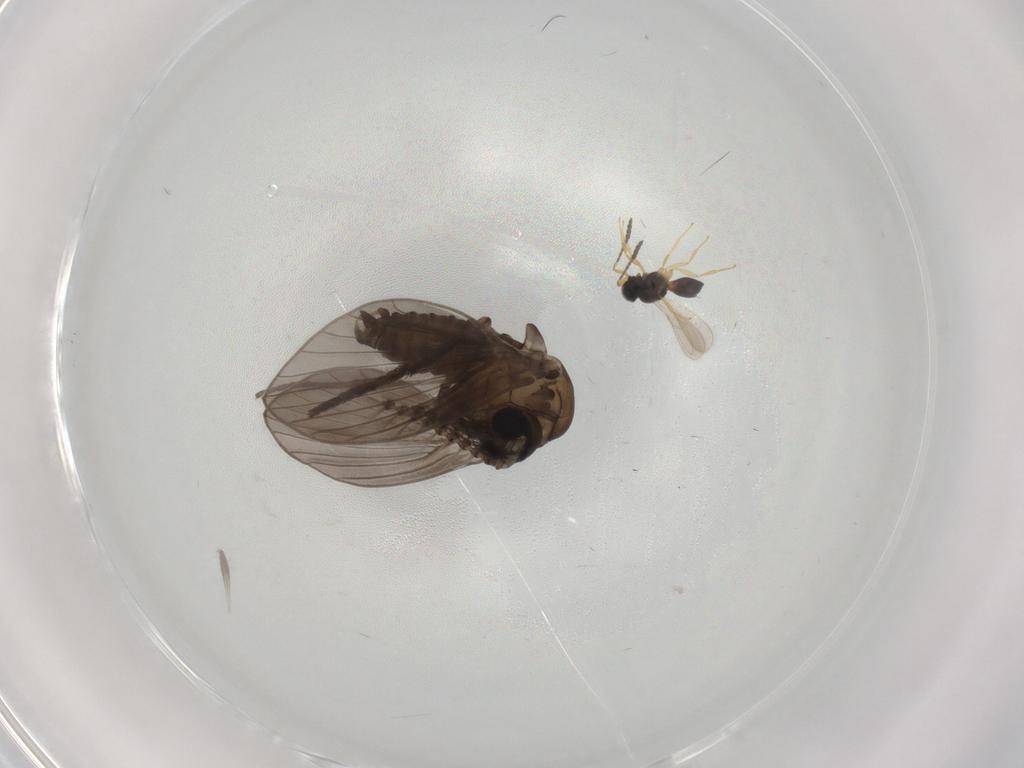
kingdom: Animalia
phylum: Arthropoda
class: Insecta
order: Diptera
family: Psychodidae
